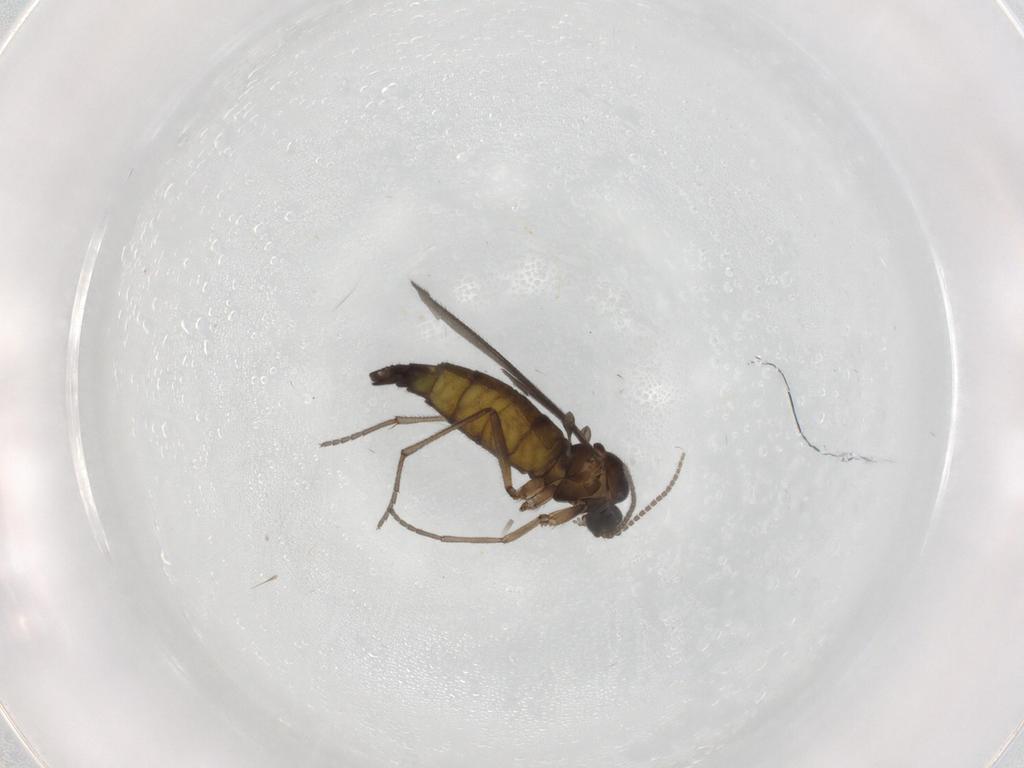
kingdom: Animalia
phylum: Arthropoda
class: Insecta
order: Diptera
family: Sciaridae
